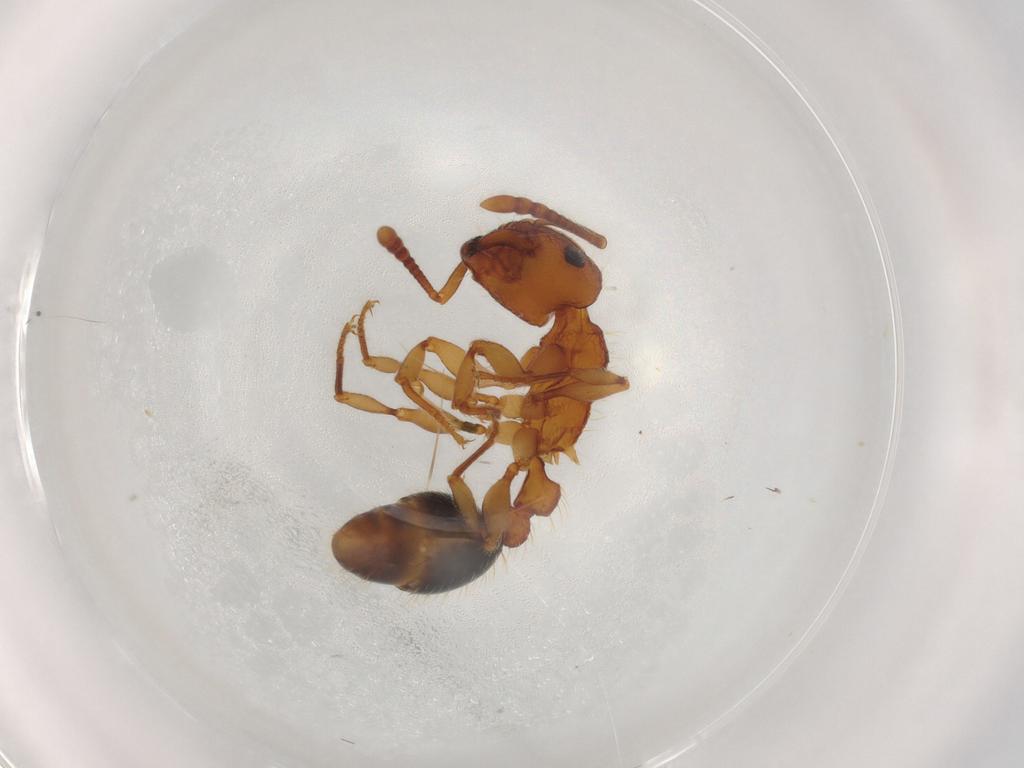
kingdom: Animalia
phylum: Arthropoda
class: Insecta
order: Hymenoptera
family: Formicidae
